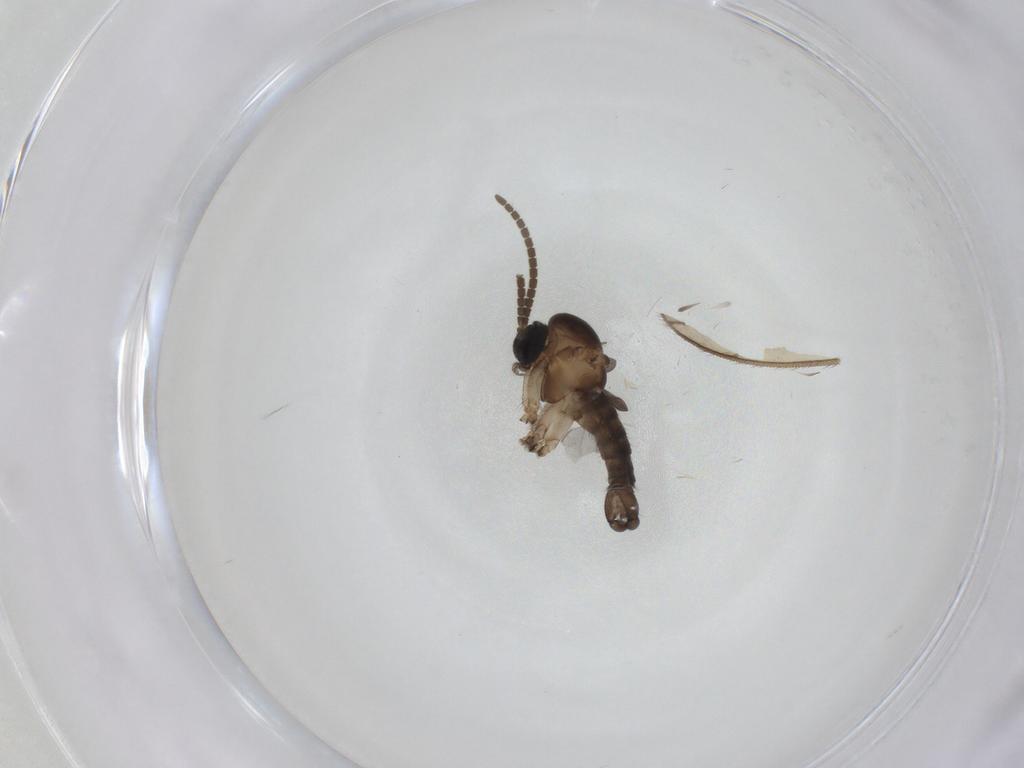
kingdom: Animalia
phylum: Arthropoda
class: Insecta
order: Diptera
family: Limoniidae
